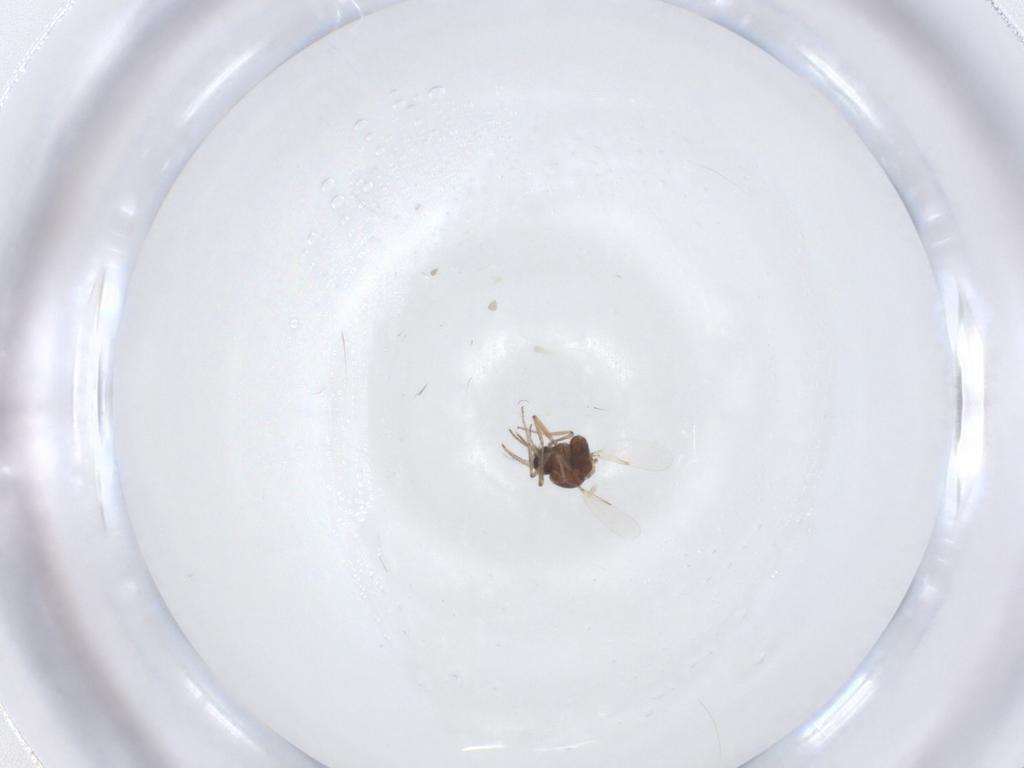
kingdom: Animalia
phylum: Arthropoda
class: Insecta
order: Diptera
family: Ceratopogonidae
